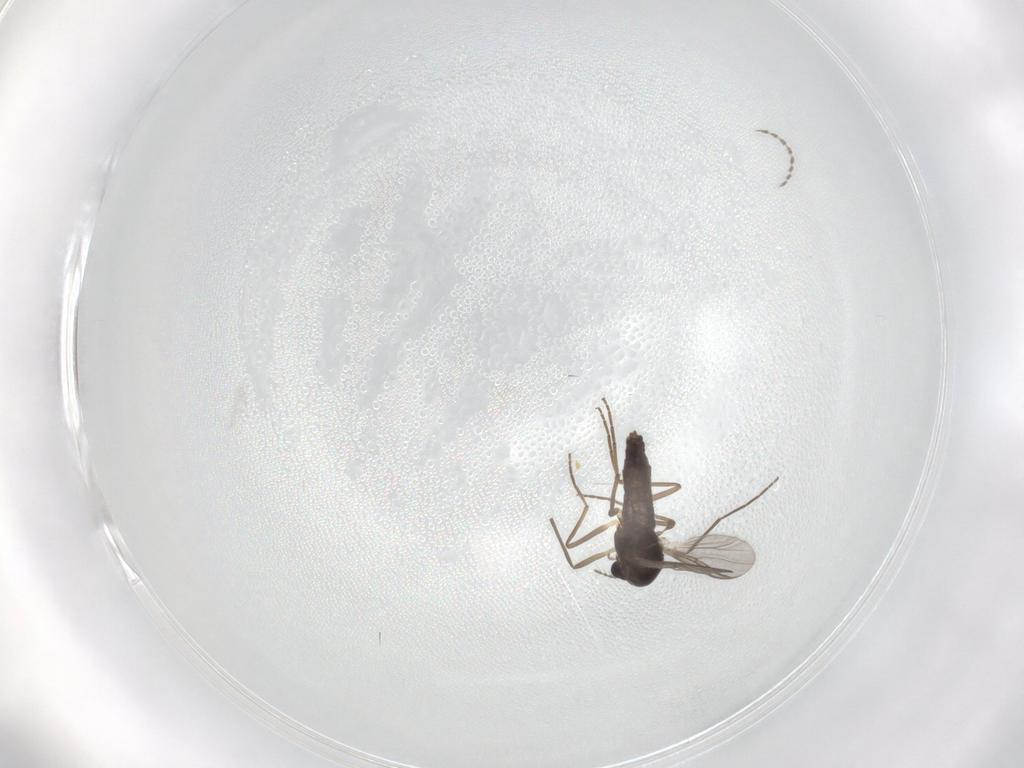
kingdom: Animalia
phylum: Arthropoda
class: Insecta
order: Diptera
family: Chironomidae
